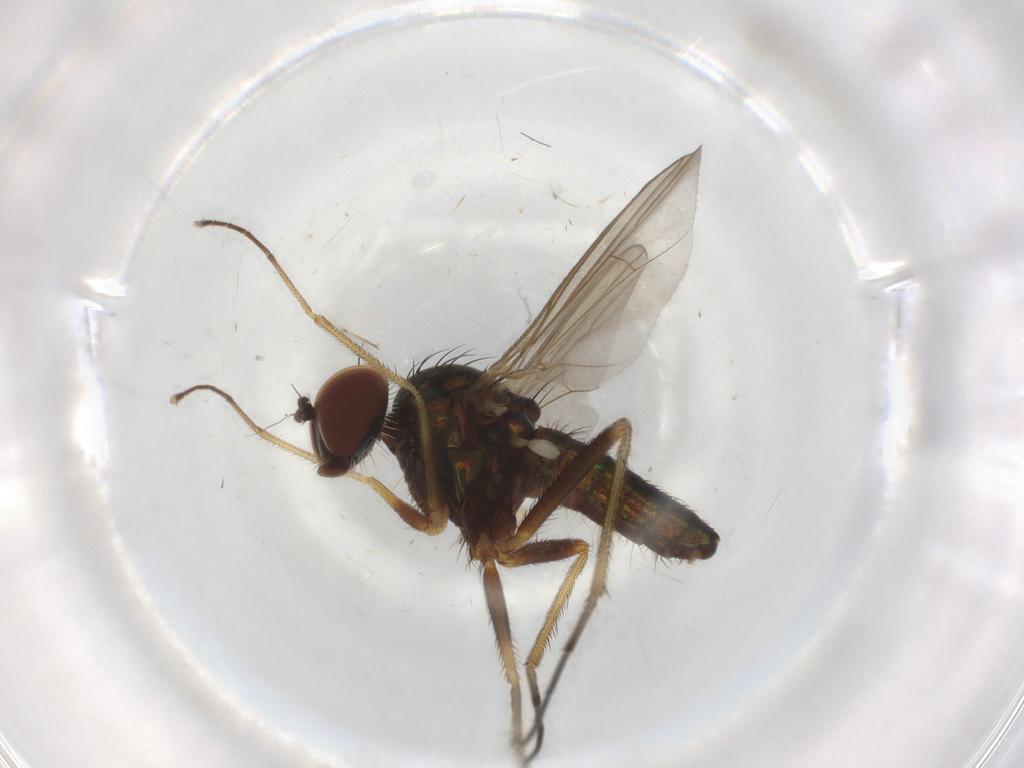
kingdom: Animalia
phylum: Arthropoda
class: Insecta
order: Diptera
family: Dolichopodidae
